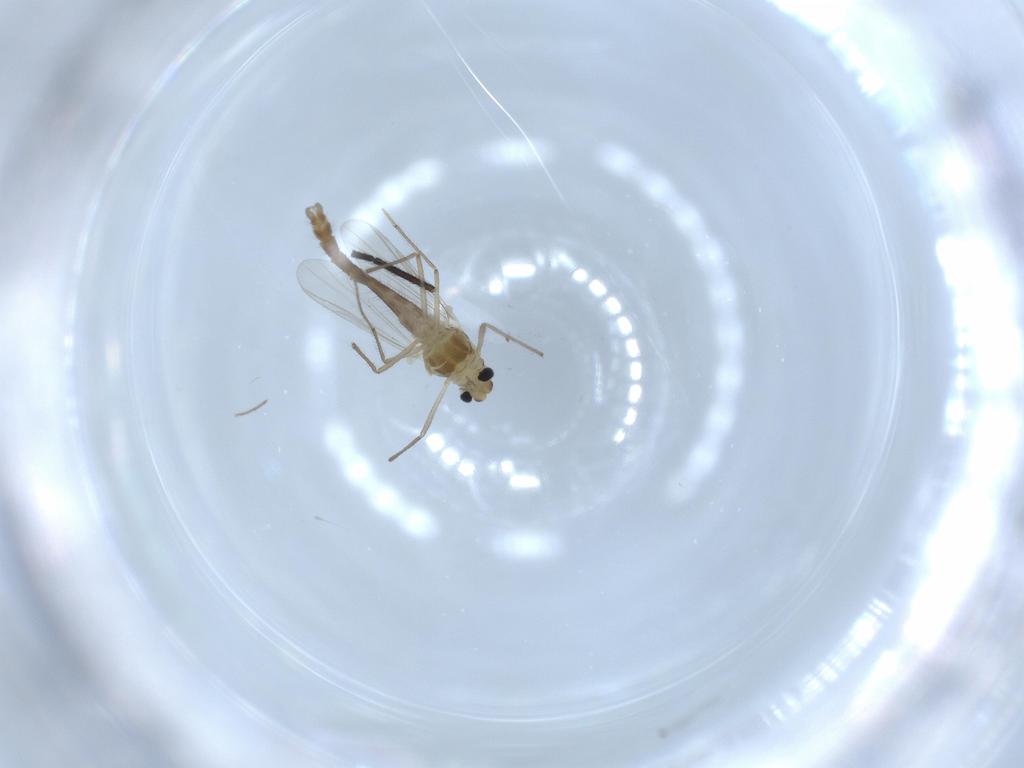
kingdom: Animalia
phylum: Arthropoda
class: Insecta
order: Diptera
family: Chironomidae
